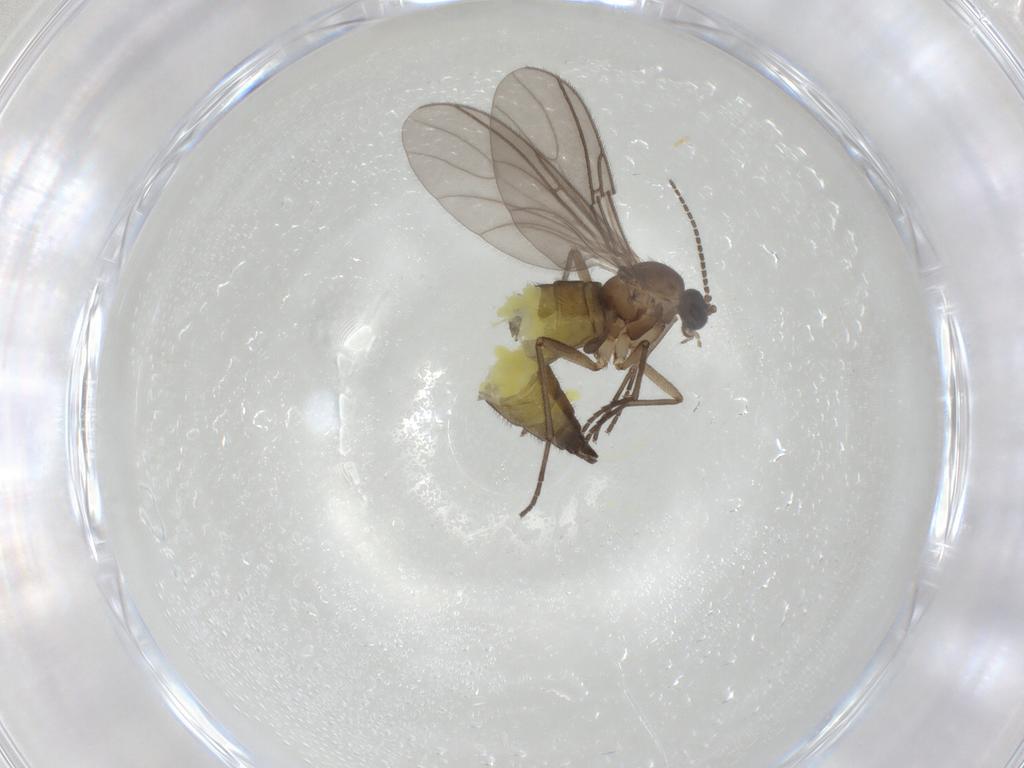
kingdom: Animalia
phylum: Arthropoda
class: Insecta
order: Diptera
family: Sciaridae
